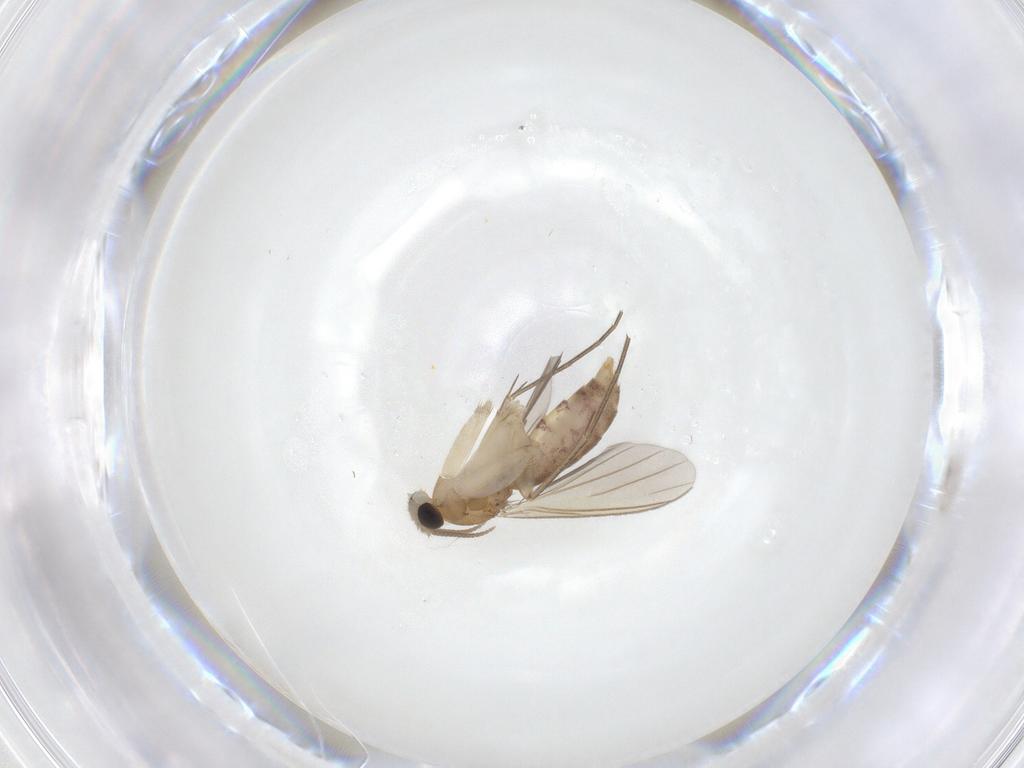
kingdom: Animalia
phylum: Arthropoda
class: Insecta
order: Diptera
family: Mycetophilidae
